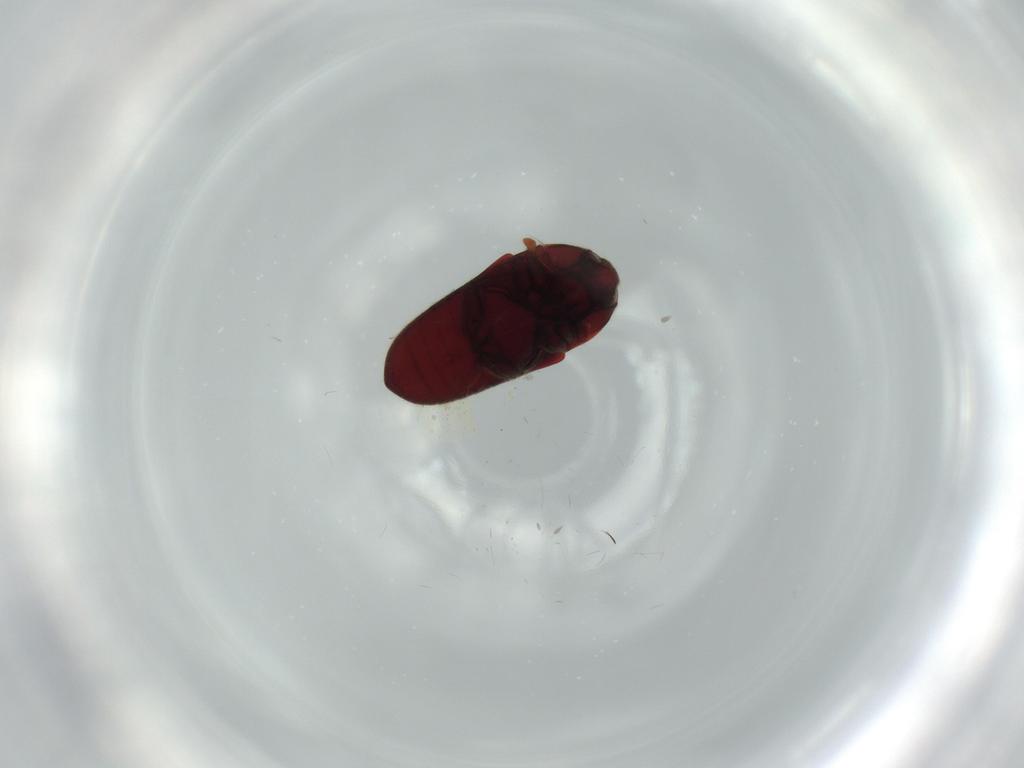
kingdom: Animalia
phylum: Arthropoda
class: Insecta
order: Coleoptera
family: Throscidae
